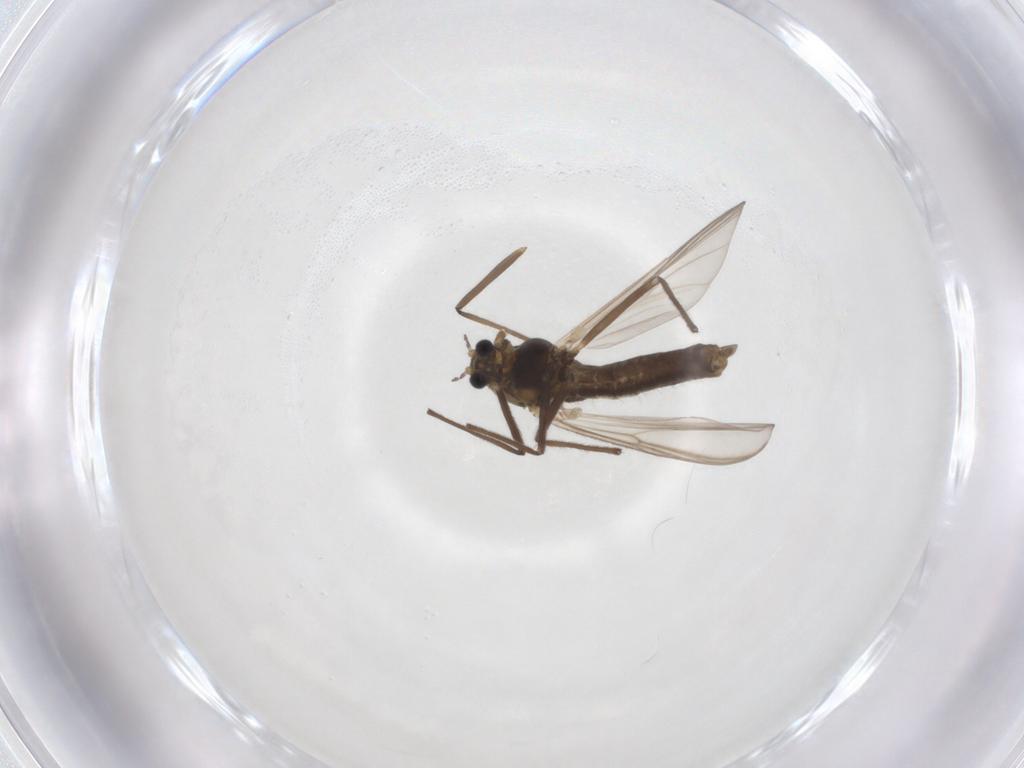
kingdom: Animalia
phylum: Arthropoda
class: Insecta
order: Diptera
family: Chironomidae
